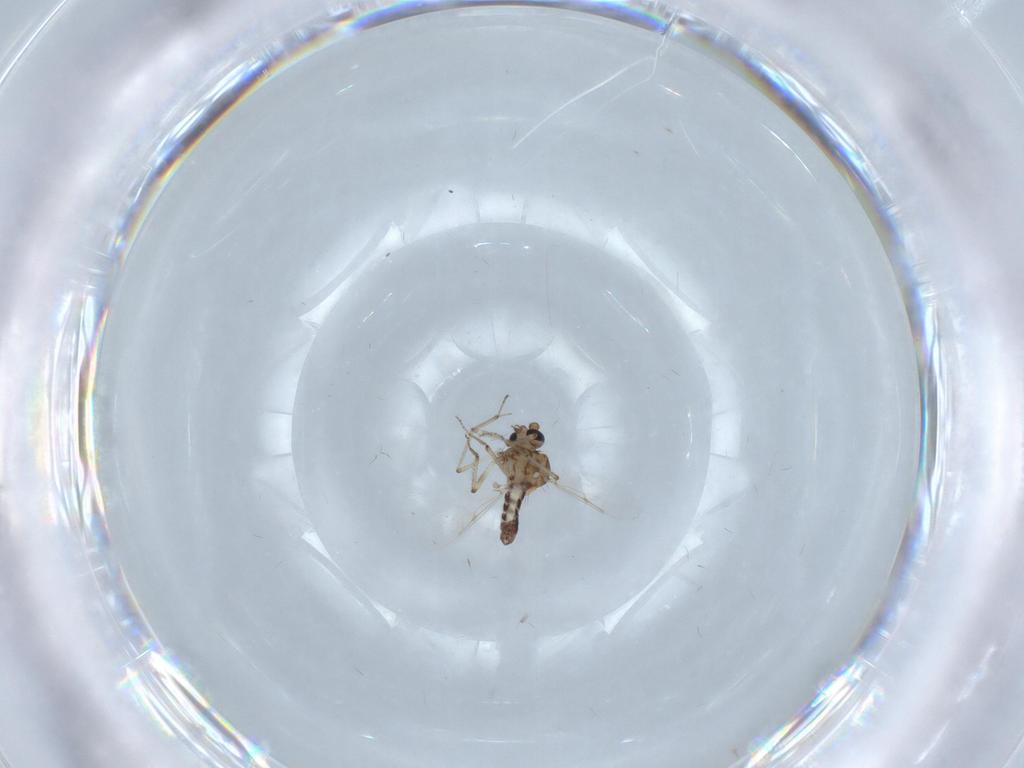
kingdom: Animalia
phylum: Arthropoda
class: Insecta
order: Diptera
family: Ceratopogonidae
